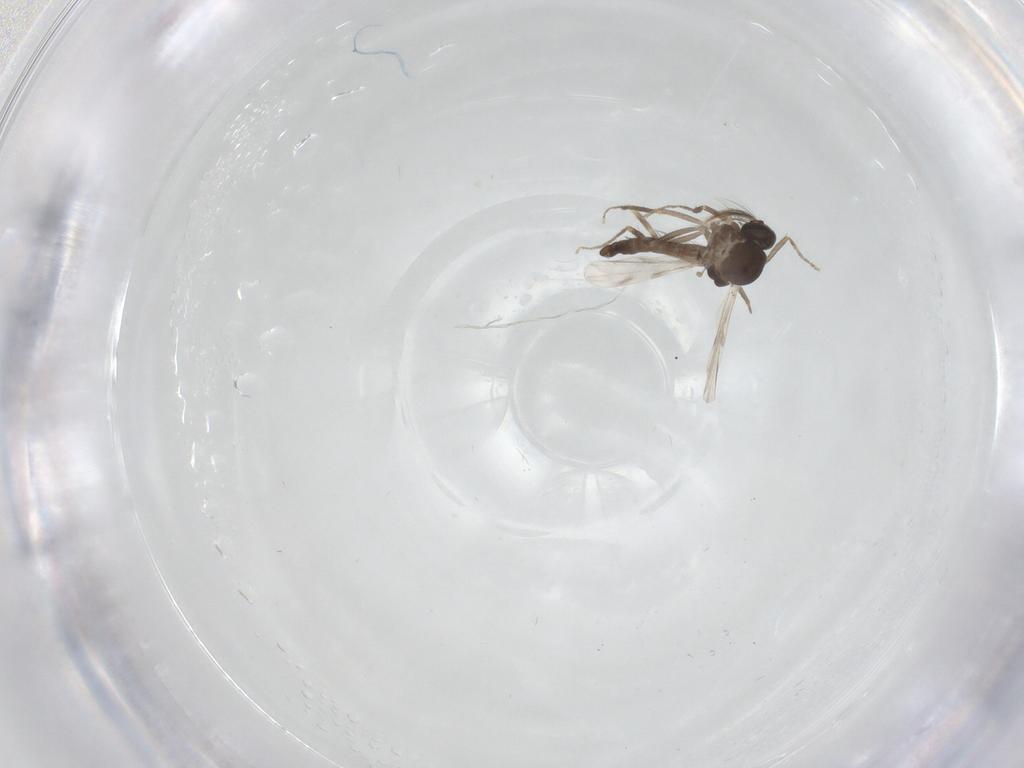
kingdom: Animalia
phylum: Arthropoda
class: Insecta
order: Diptera
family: Ceratopogonidae
